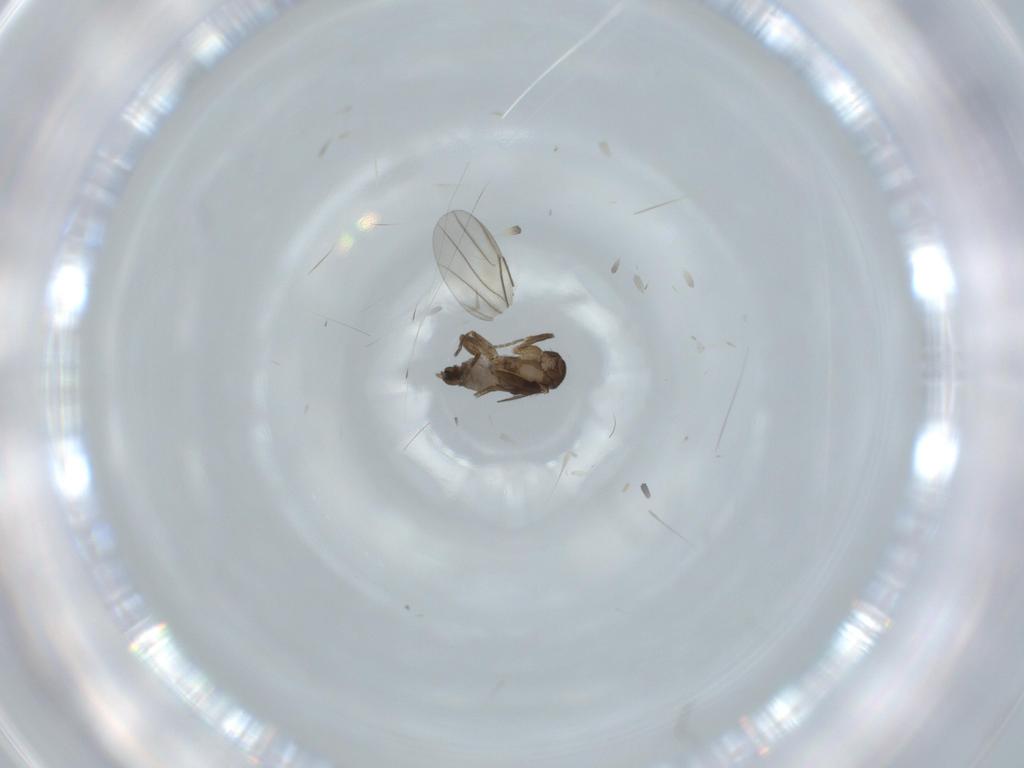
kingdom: Animalia
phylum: Arthropoda
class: Insecta
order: Diptera
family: Phoridae
